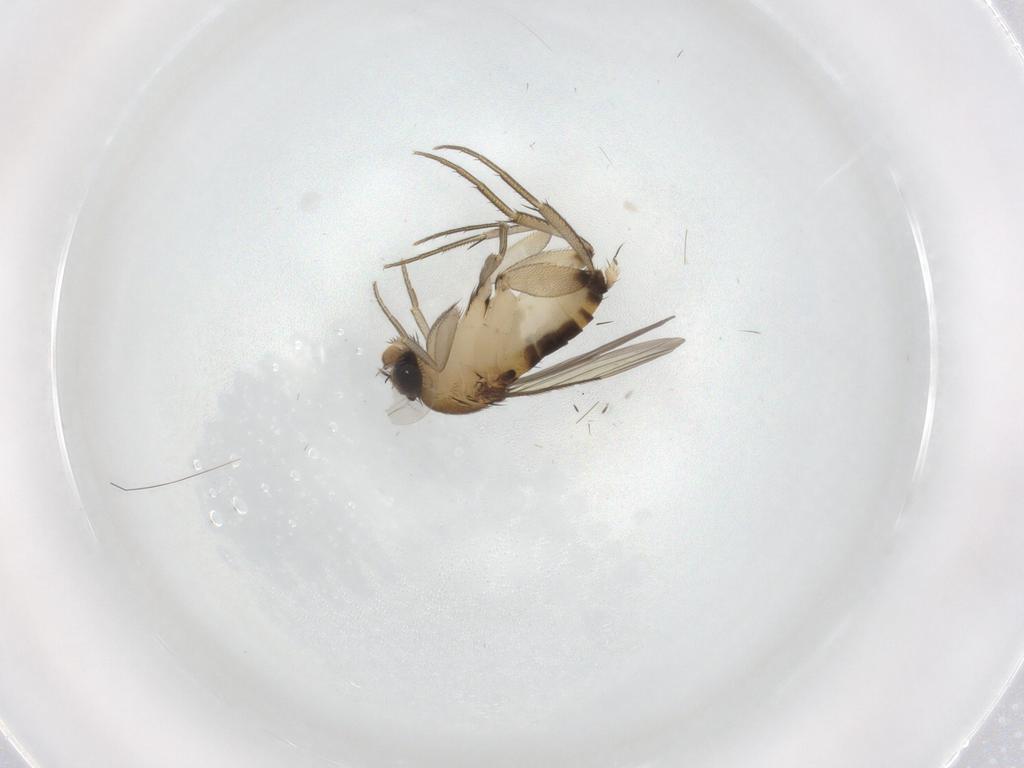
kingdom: Animalia
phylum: Arthropoda
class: Insecta
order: Diptera
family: Phoridae
